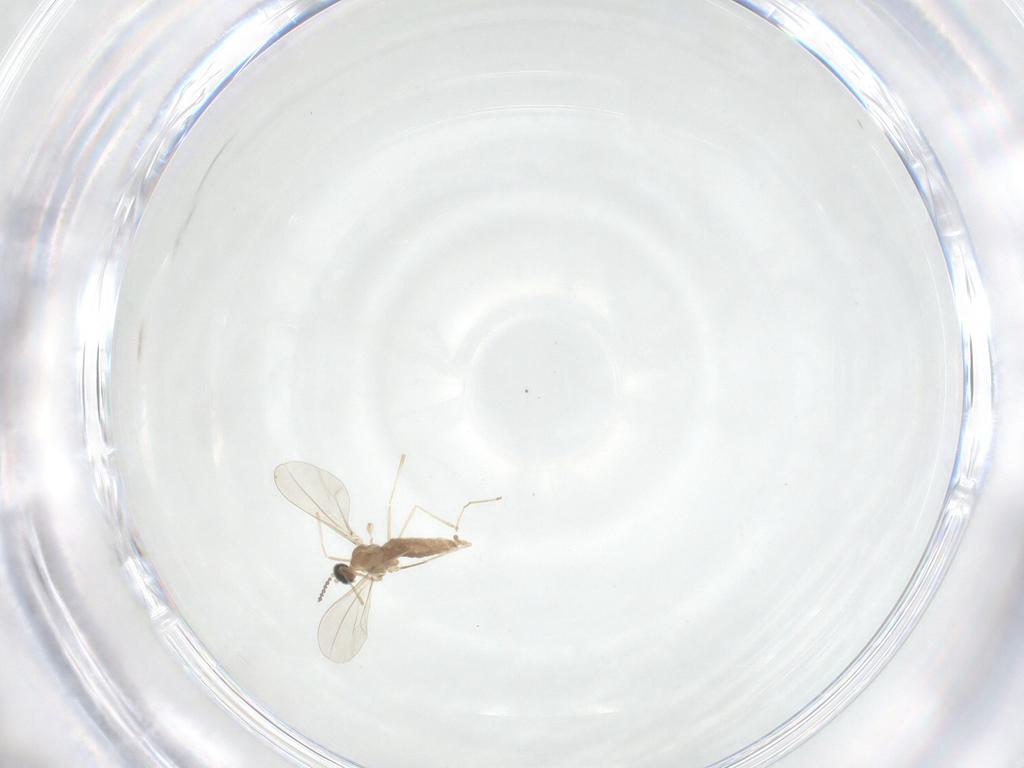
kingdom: Animalia
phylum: Arthropoda
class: Insecta
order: Diptera
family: Cecidomyiidae
